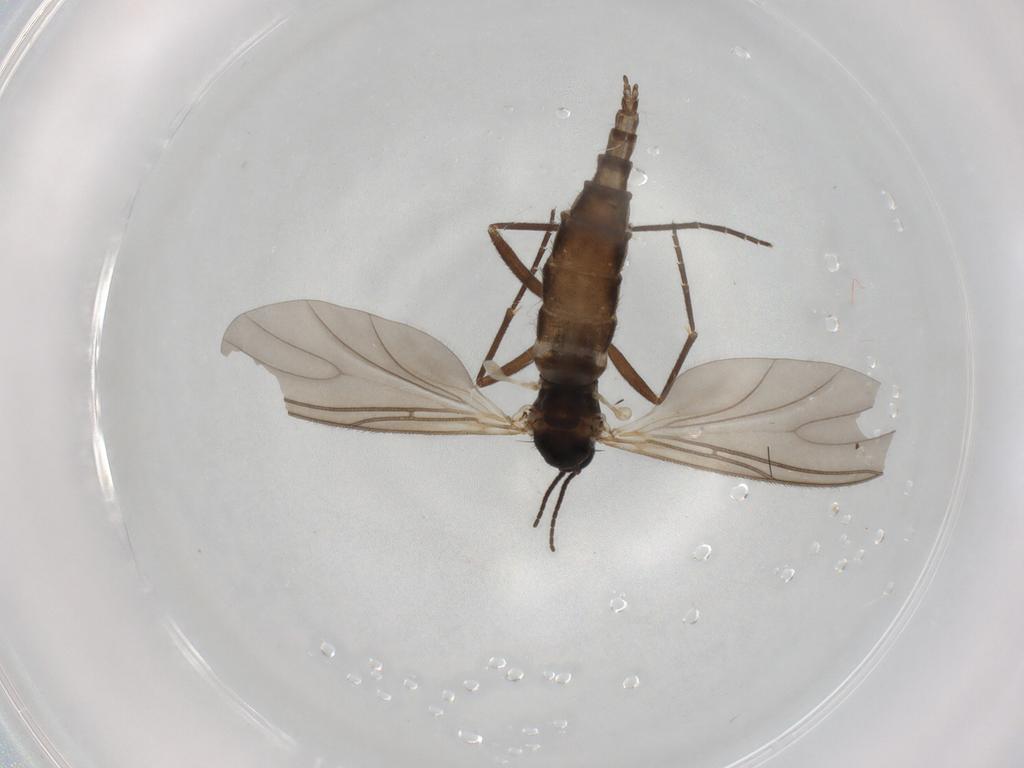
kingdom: Animalia
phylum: Arthropoda
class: Insecta
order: Diptera
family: Sciaridae
